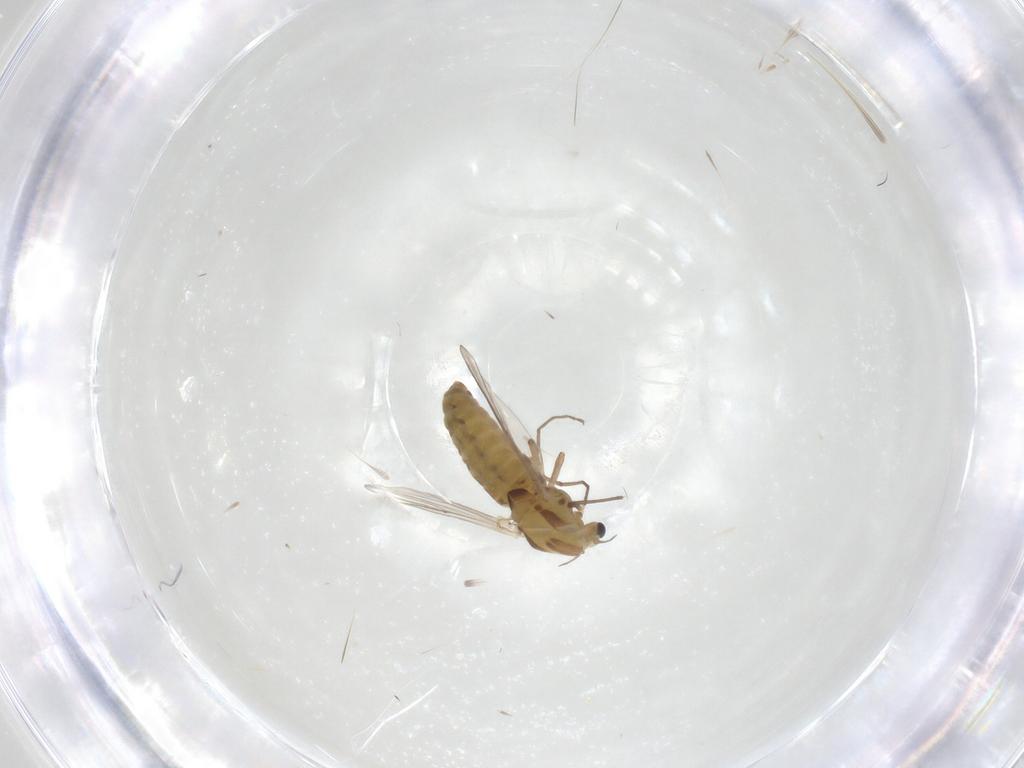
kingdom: Animalia
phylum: Arthropoda
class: Insecta
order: Diptera
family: Chironomidae
